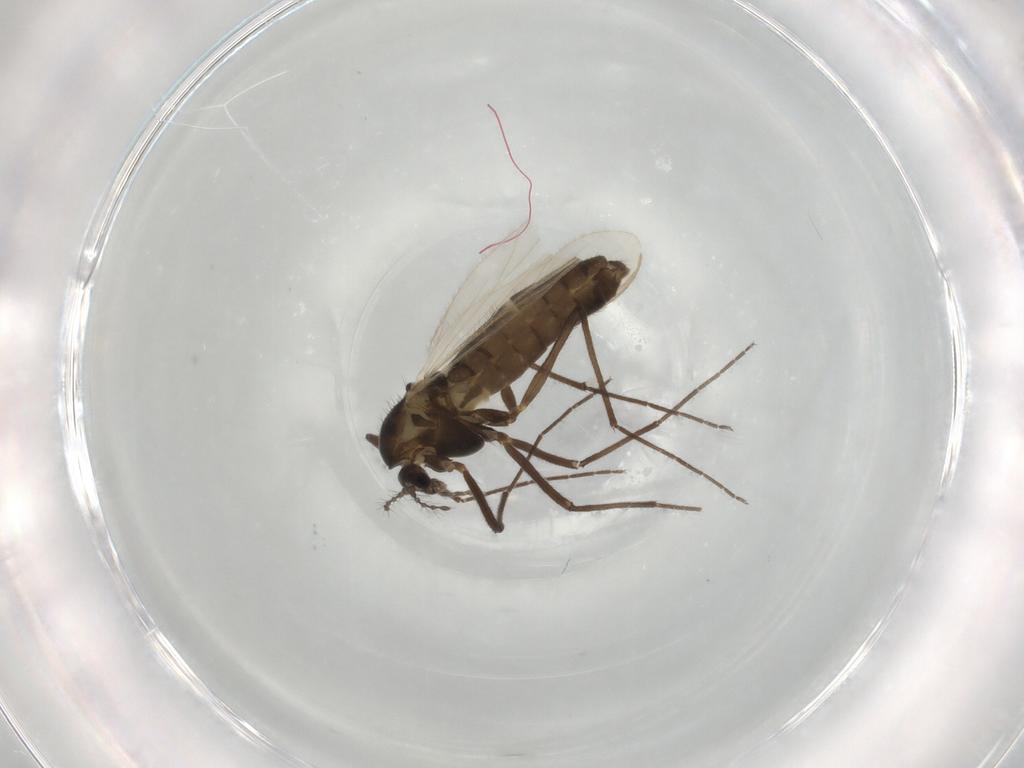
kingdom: Animalia
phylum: Arthropoda
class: Insecta
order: Diptera
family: Chironomidae
